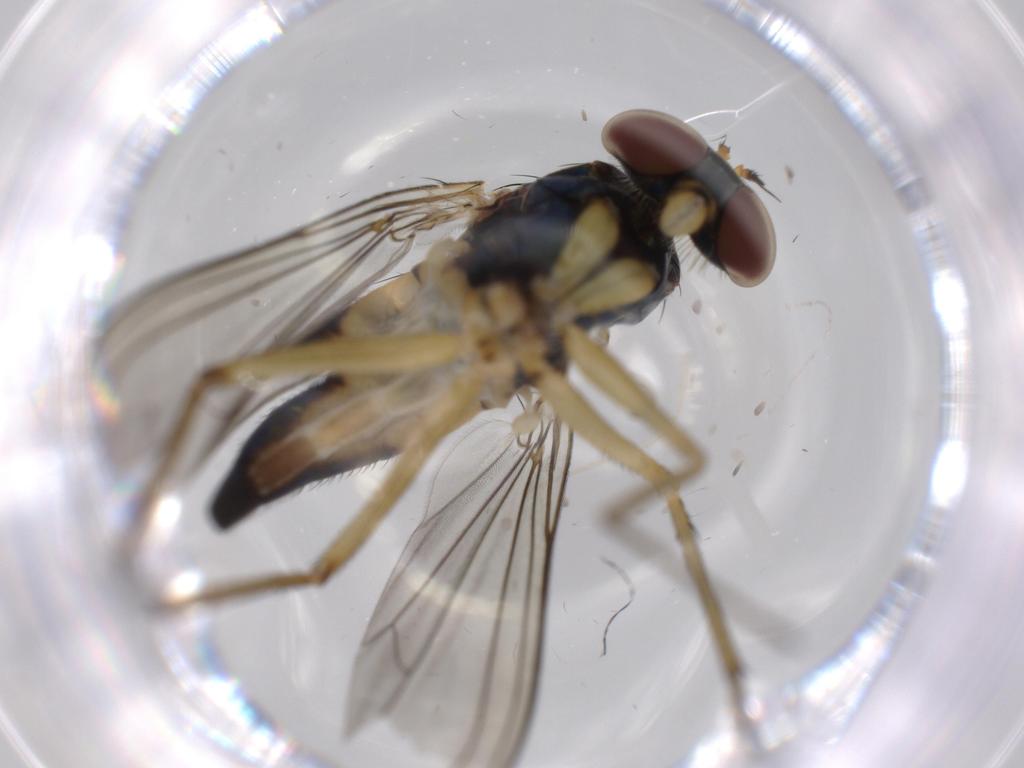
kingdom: Animalia
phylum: Arthropoda
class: Insecta
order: Diptera
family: Dolichopodidae
